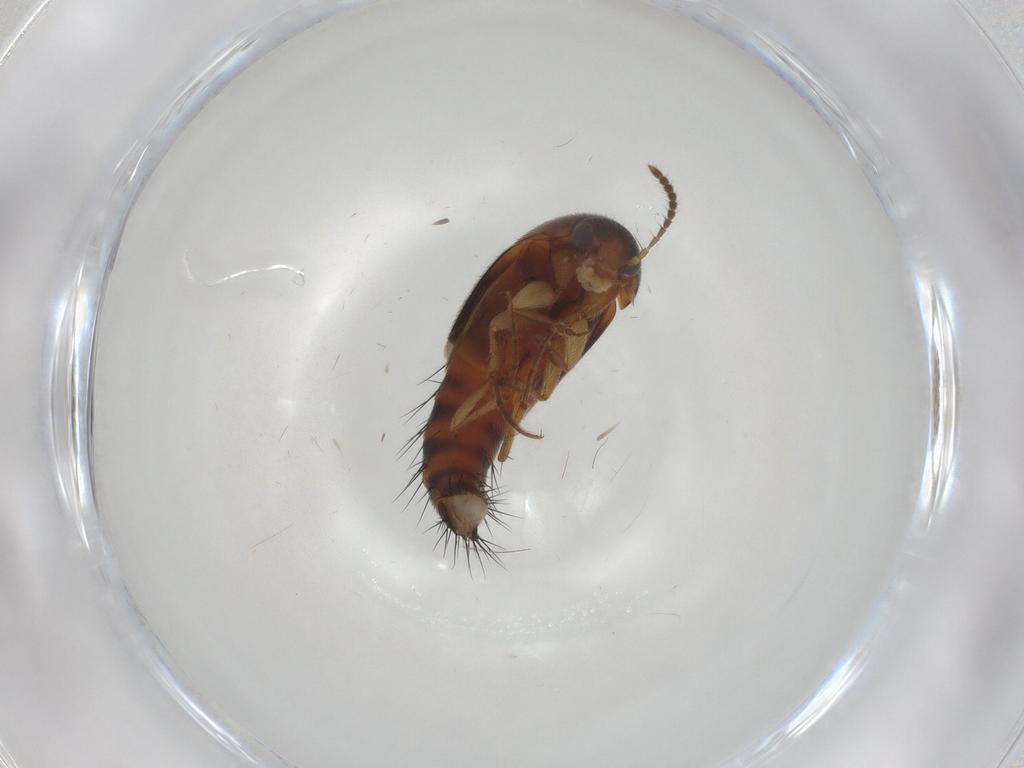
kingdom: Animalia
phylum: Arthropoda
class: Insecta
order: Coleoptera
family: Staphylinidae
